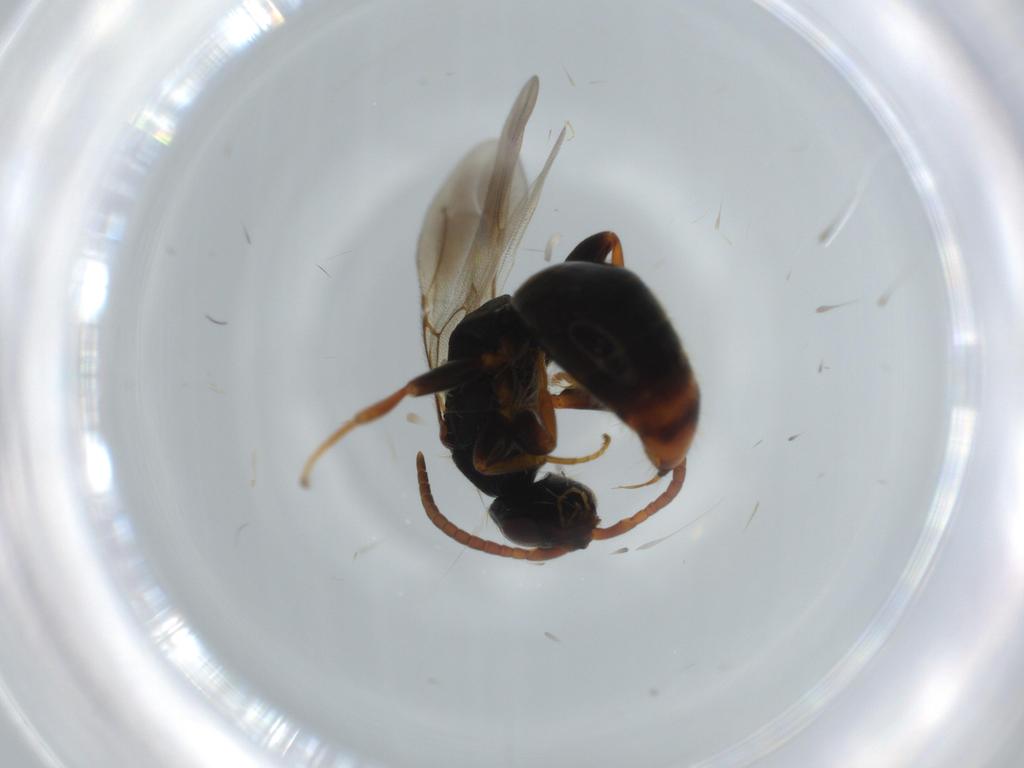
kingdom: Animalia
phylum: Arthropoda
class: Insecta
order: Hymenoptera
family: Bethylidae
